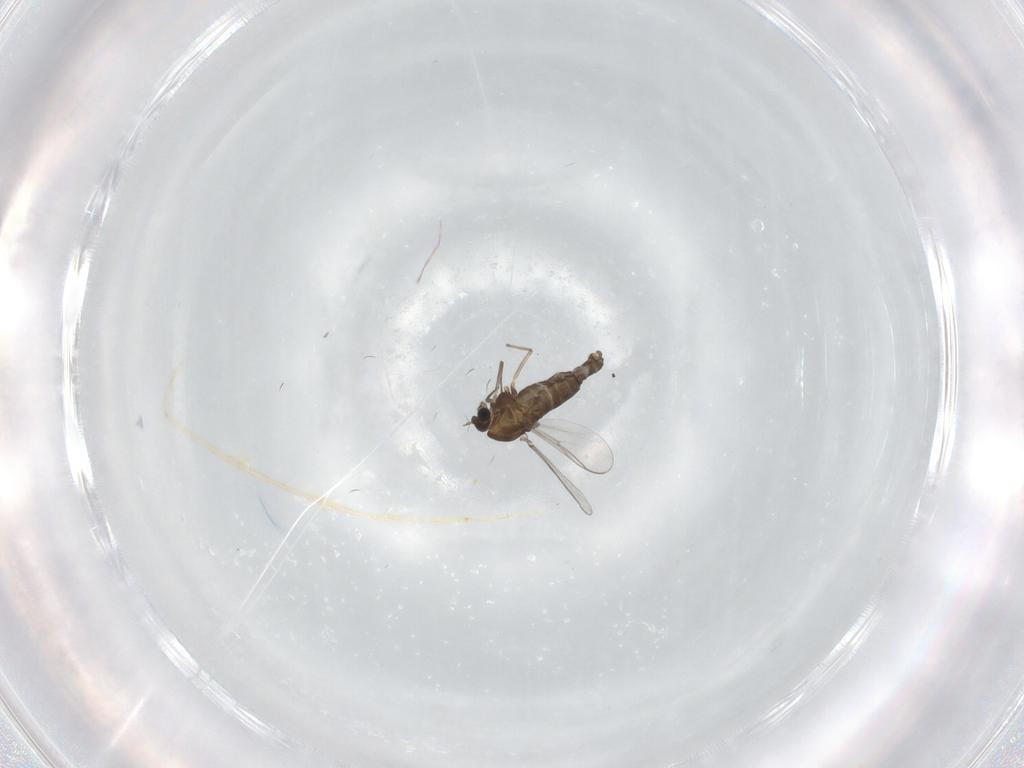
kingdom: Animalia
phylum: Arthropoda
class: Insecta
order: Diptera
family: Chironomidae
